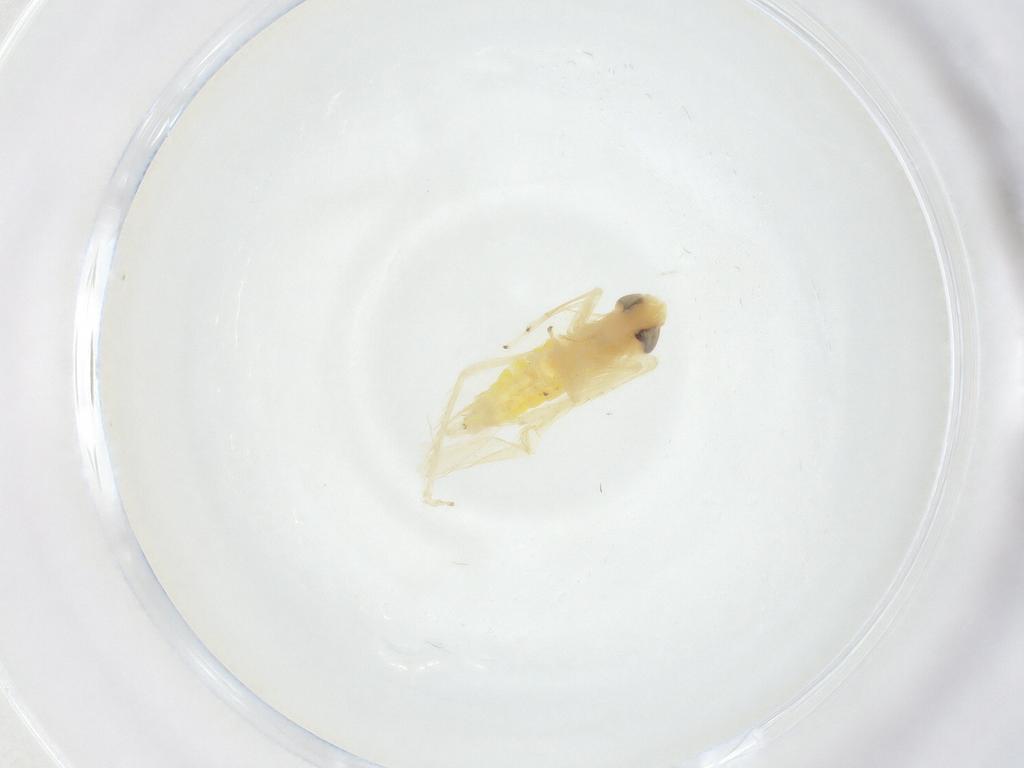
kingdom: Animalia
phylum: Arthropoda
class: Insecta
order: Hemiptera
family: Cicadellidae
